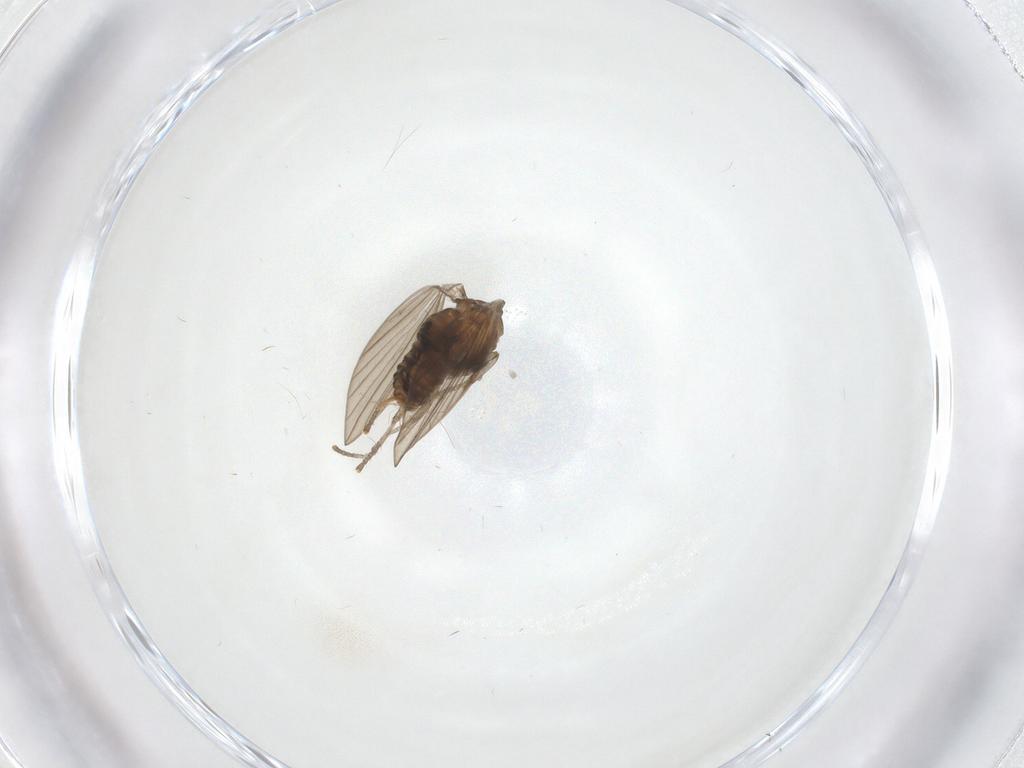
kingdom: Animalia
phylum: Arthropoda
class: Insecta
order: Diptera
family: Psychodidae
